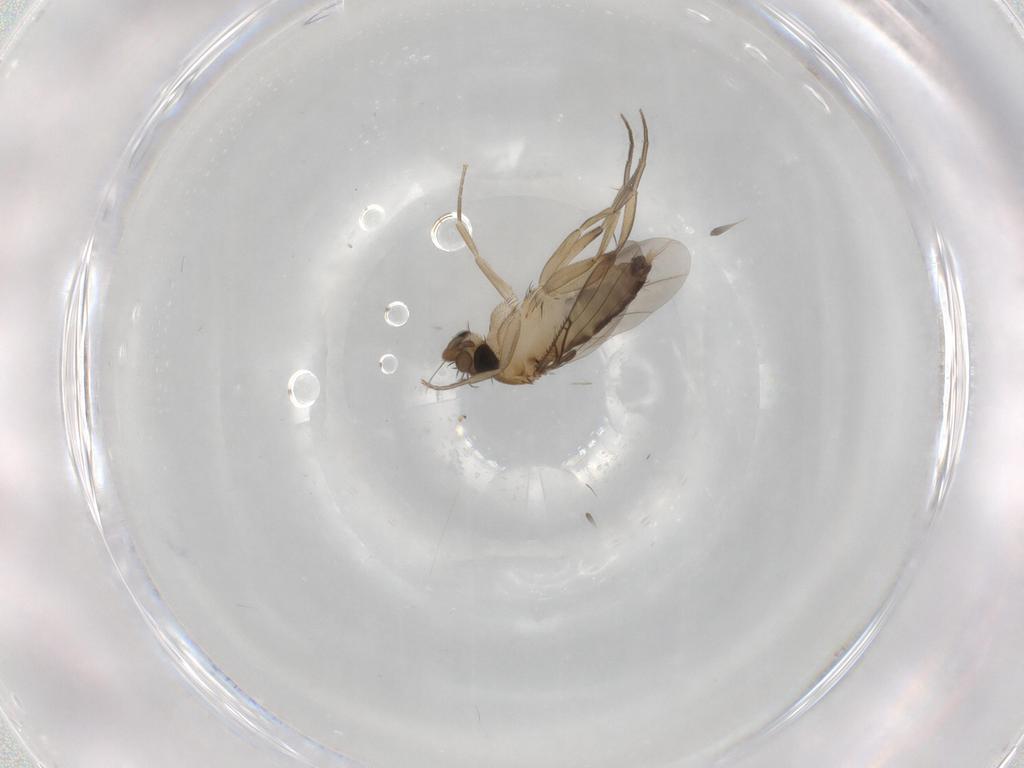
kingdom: Animalia
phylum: Arthropoda
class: Insecta
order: Diptera
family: Phoridae
